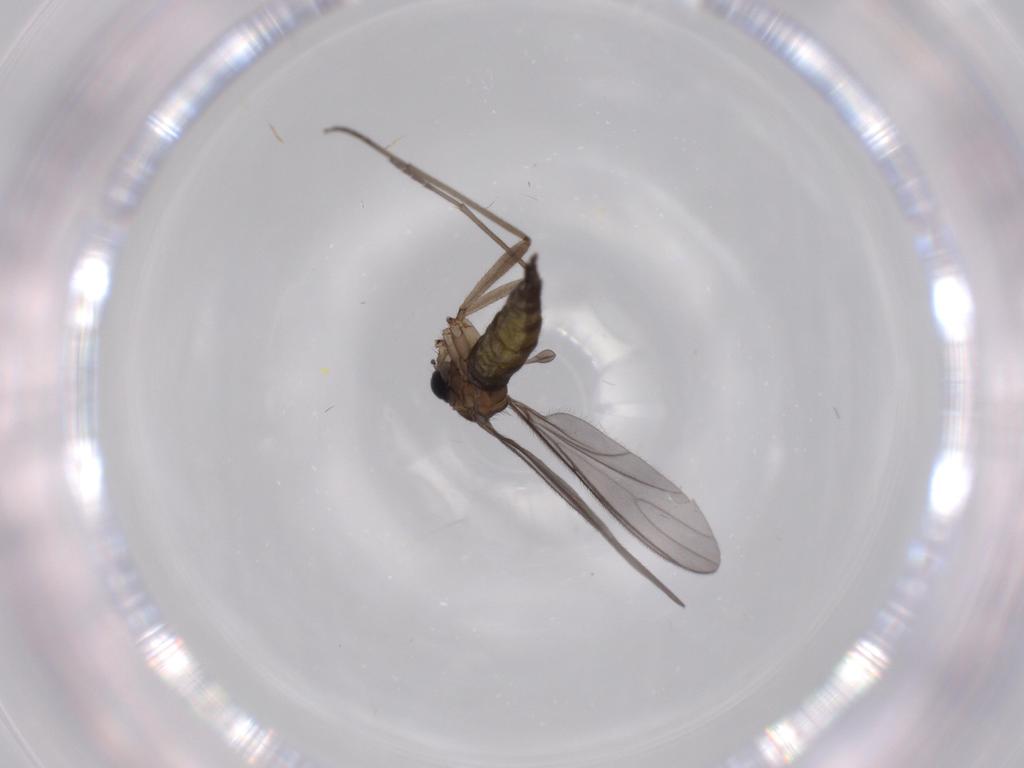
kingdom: Animalia
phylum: Arthropoda
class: Insecta
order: Diptera
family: Sciaridae
